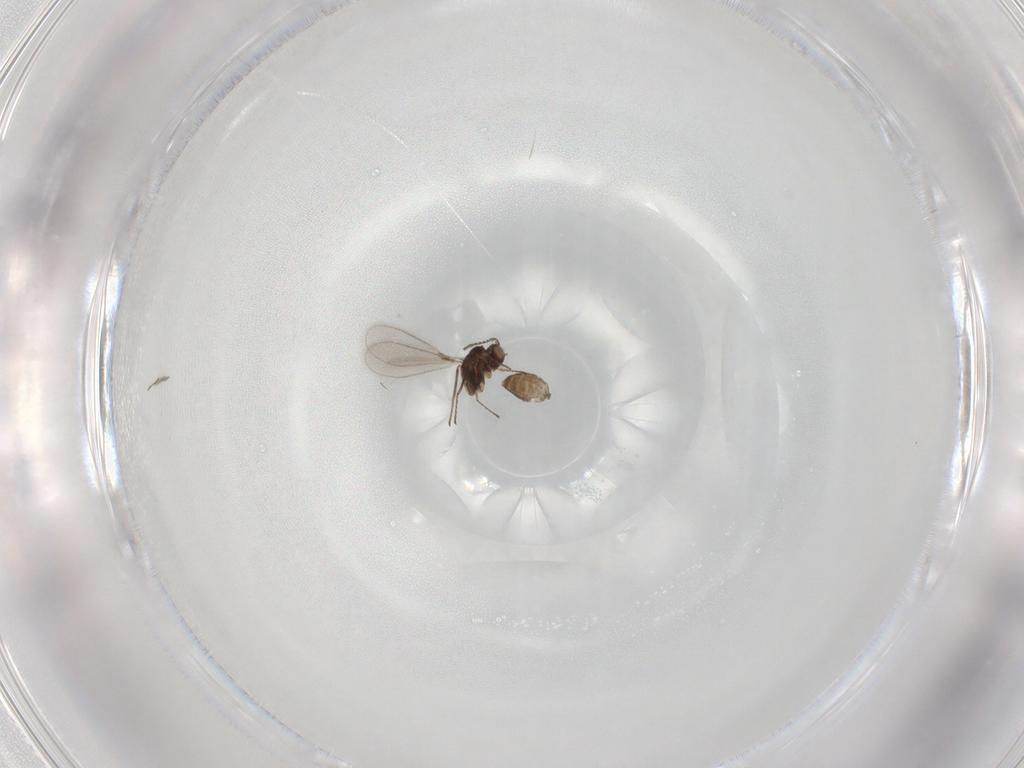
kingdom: Animalia
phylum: Arthropoda
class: Insecta
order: Hymenoptera
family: Mymaridae
